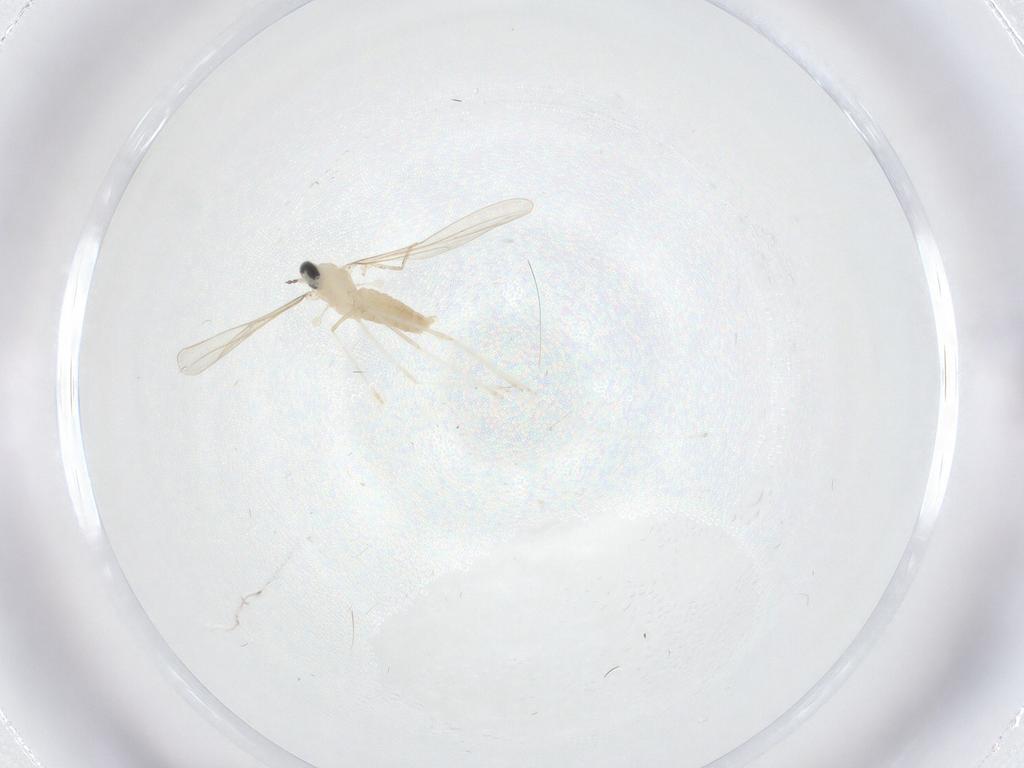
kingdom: Animalia
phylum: Arthropoda
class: Insecta
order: Diptera
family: Cecidomyiidae
